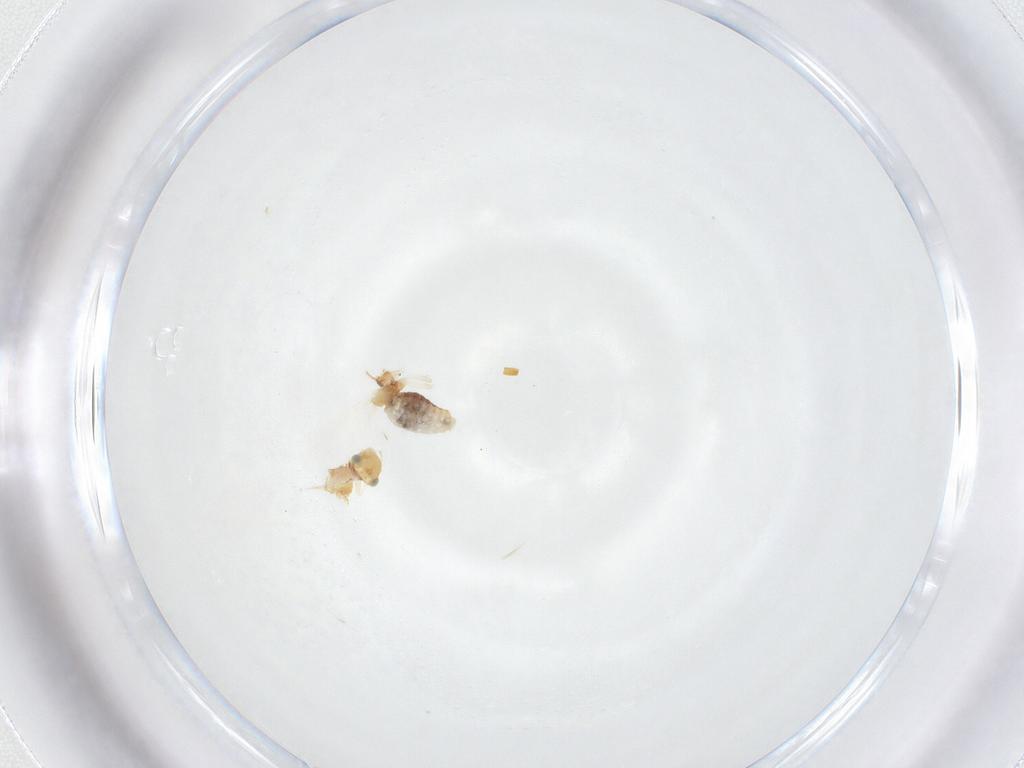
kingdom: Animalia
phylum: Arthropoda
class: Insecta
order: Psocodea
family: Lachesillidae
